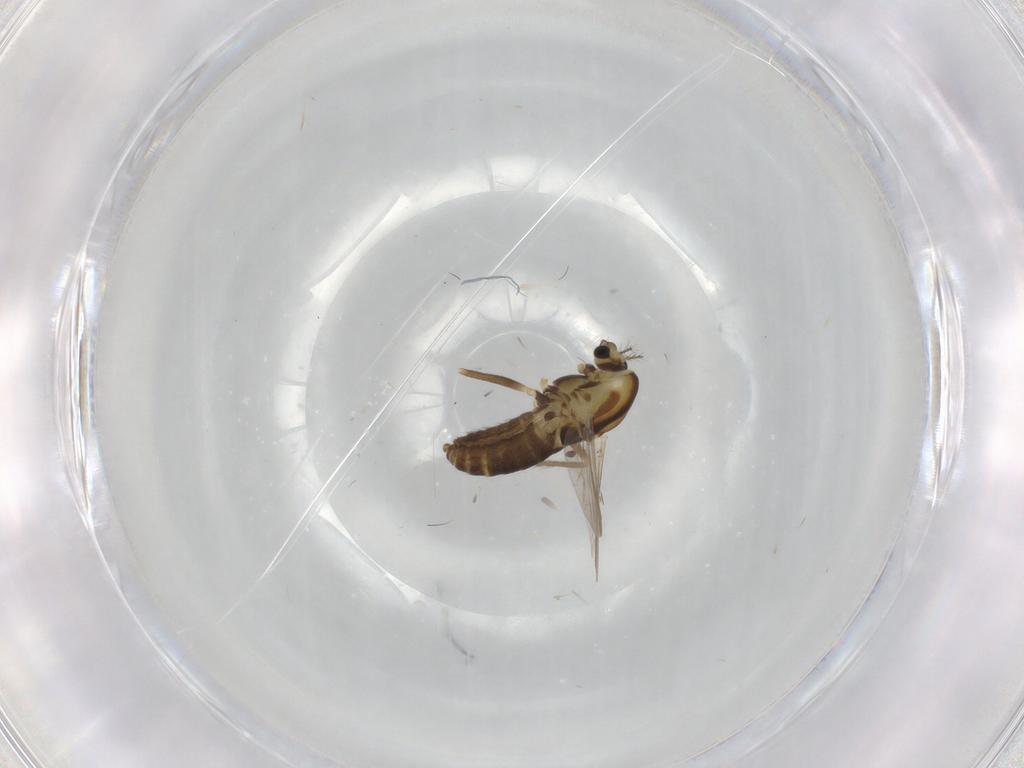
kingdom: Animalia
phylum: Arthropoda
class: Insecta
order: Diptera
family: Chironomidae
